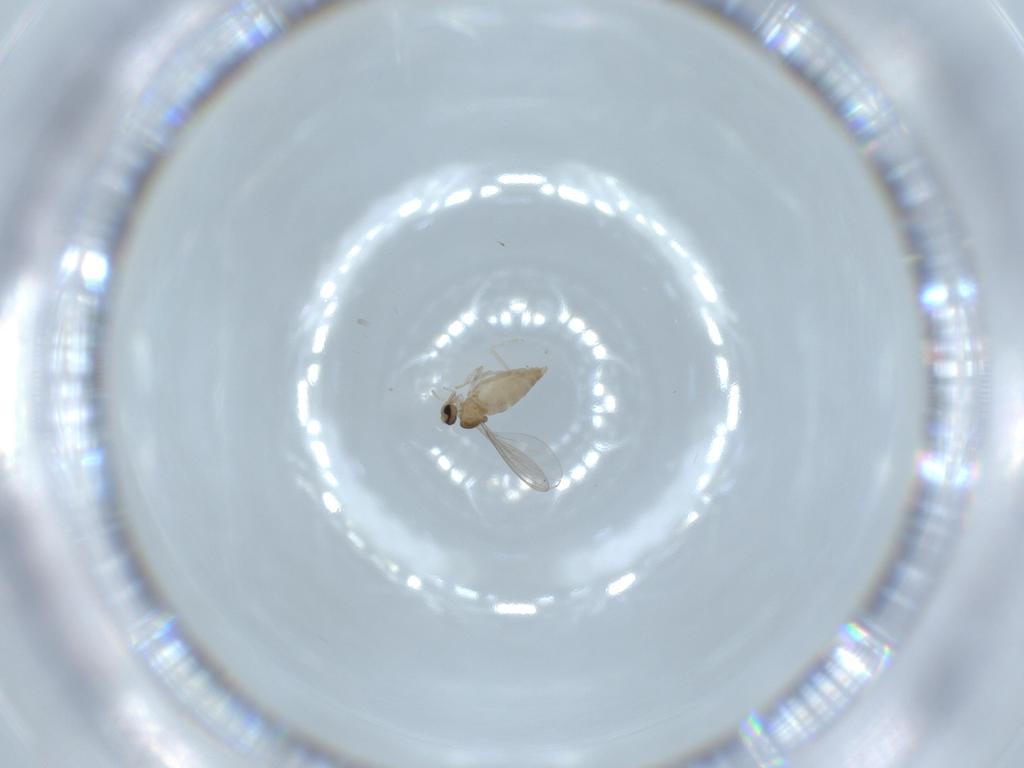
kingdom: Animalia
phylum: Arthropoda
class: Insecta
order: Diptera
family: Cecidomyiidae
